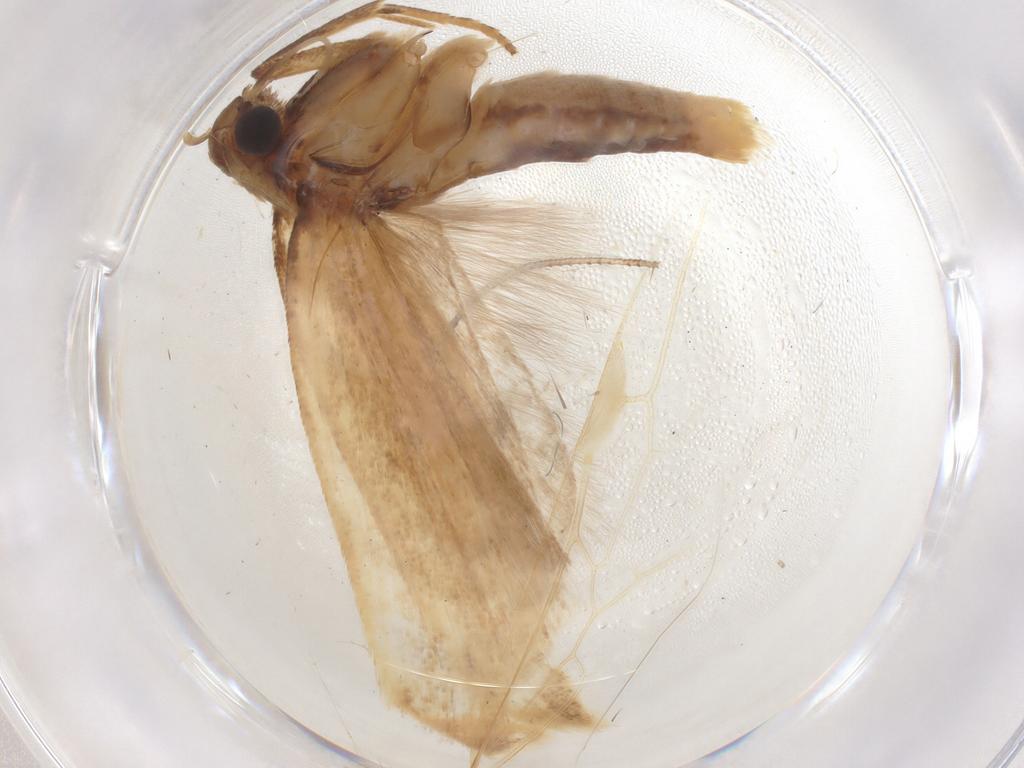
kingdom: Animalia
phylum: Arthropoda
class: Insecta
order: Lepidoptera
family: Gelechiidae
